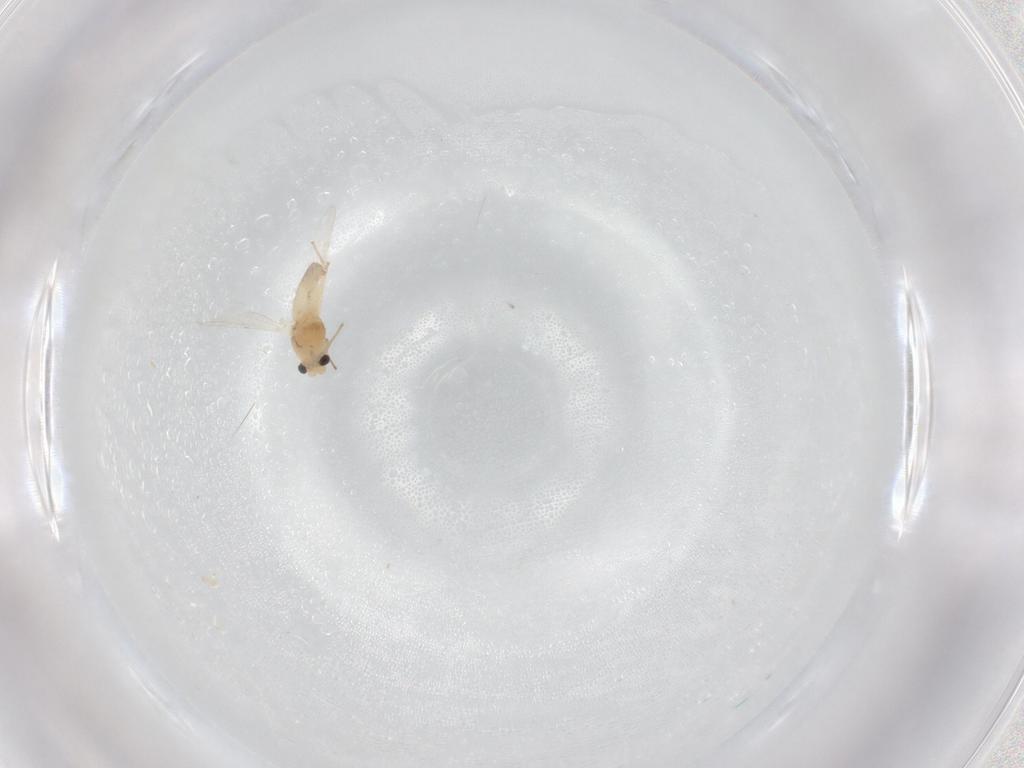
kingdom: Animalia
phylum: Arthropoda
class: Insecta
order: Diptera
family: Chironomidae
